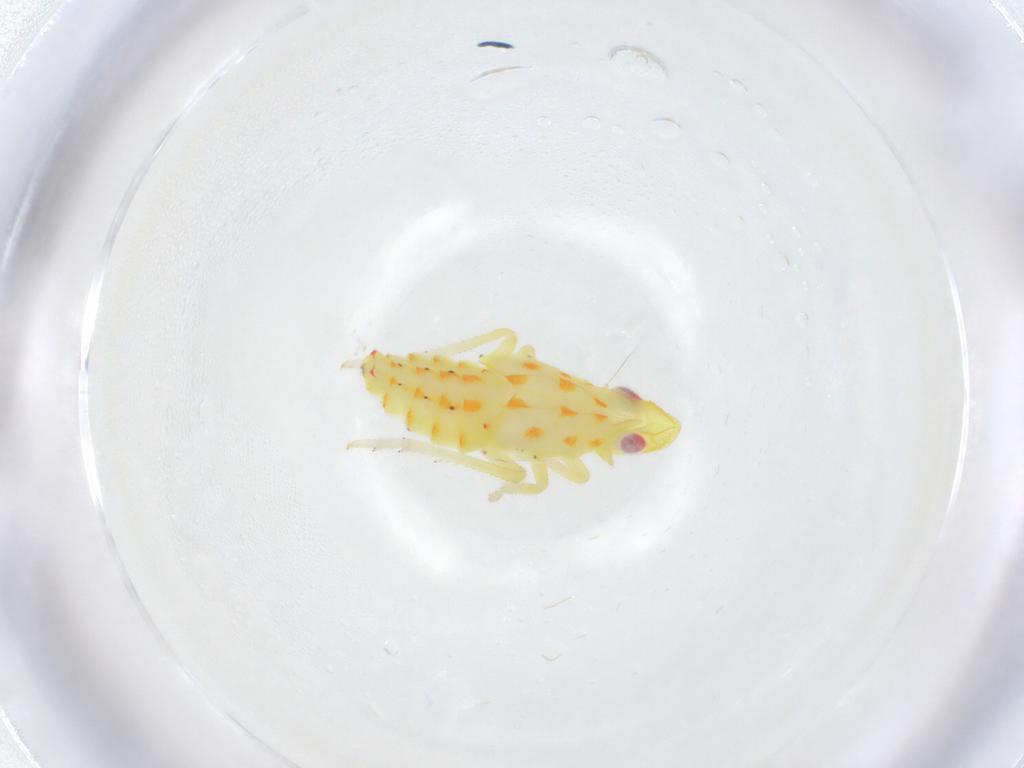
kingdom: Animalia
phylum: Arthropoda
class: Insecta
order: Hemiptera
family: Tropiduchidae
